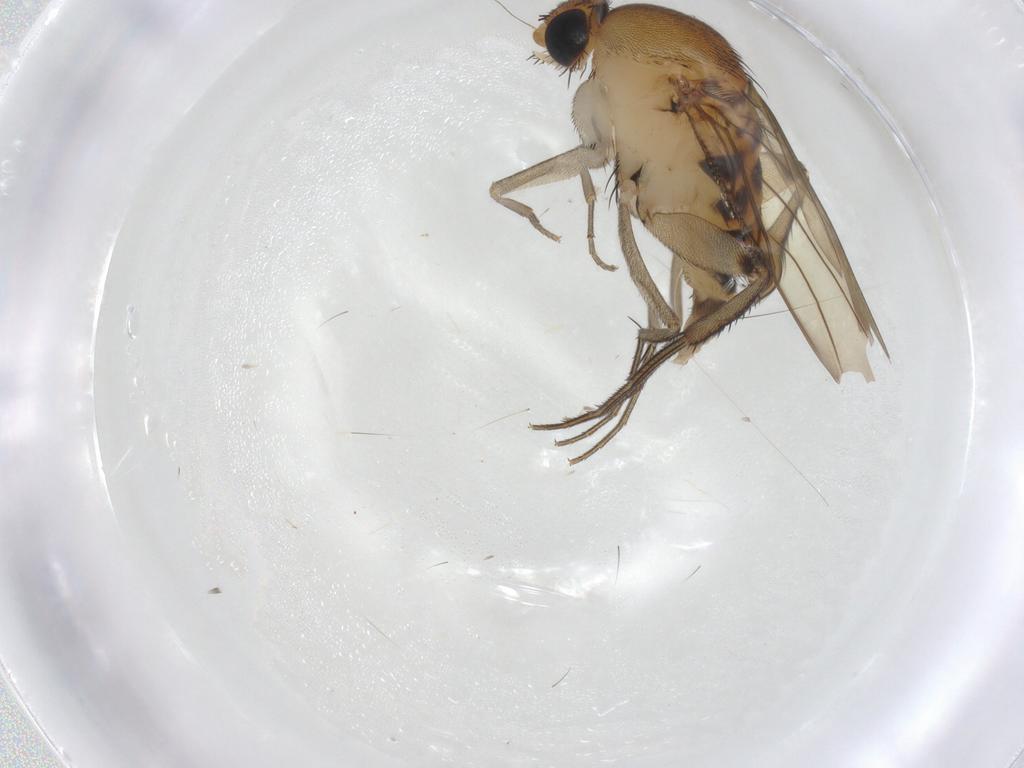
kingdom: Animalia
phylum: Arthropoda
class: Insecta
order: Diptera
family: Phoridae
